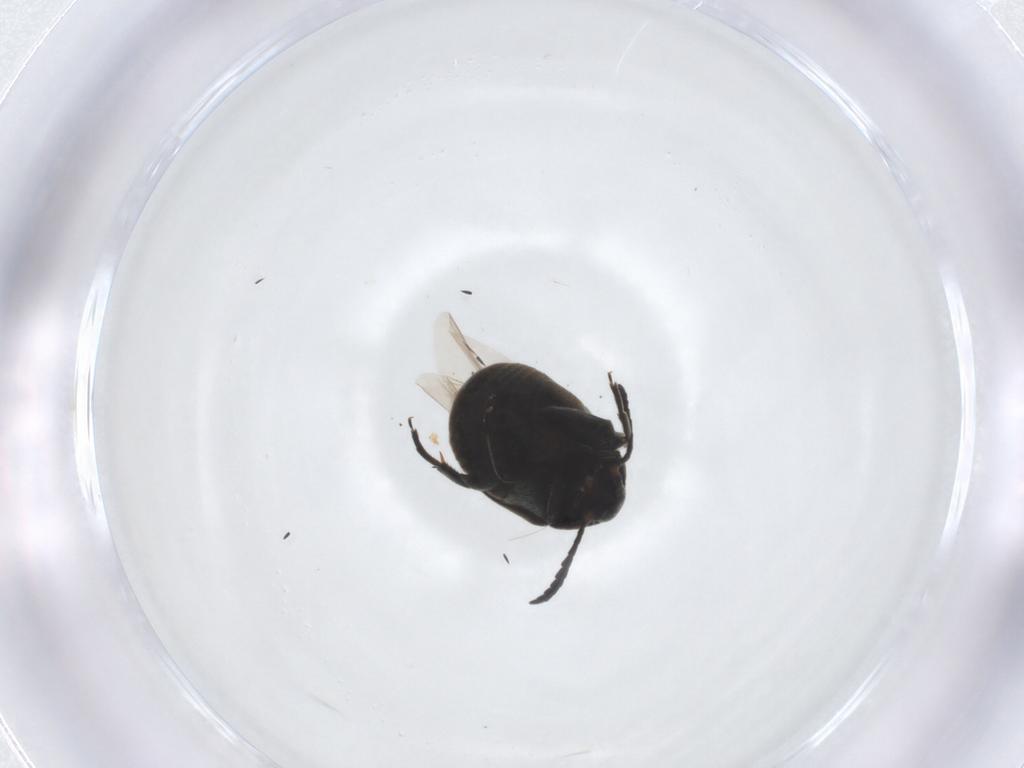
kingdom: Animalia
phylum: Arthropoda
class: Insecta
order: Coleoptera
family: Chrysomelidae
